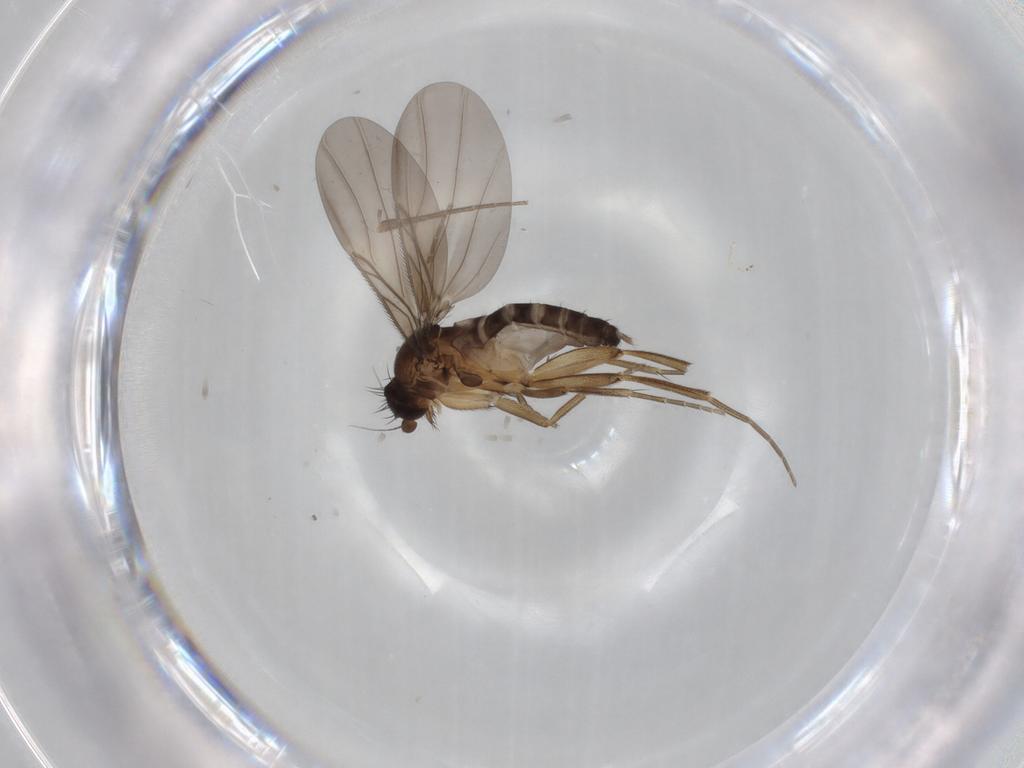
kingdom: Animalia
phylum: Arthropoda
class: Insecta
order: Diptera
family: Phoridae
